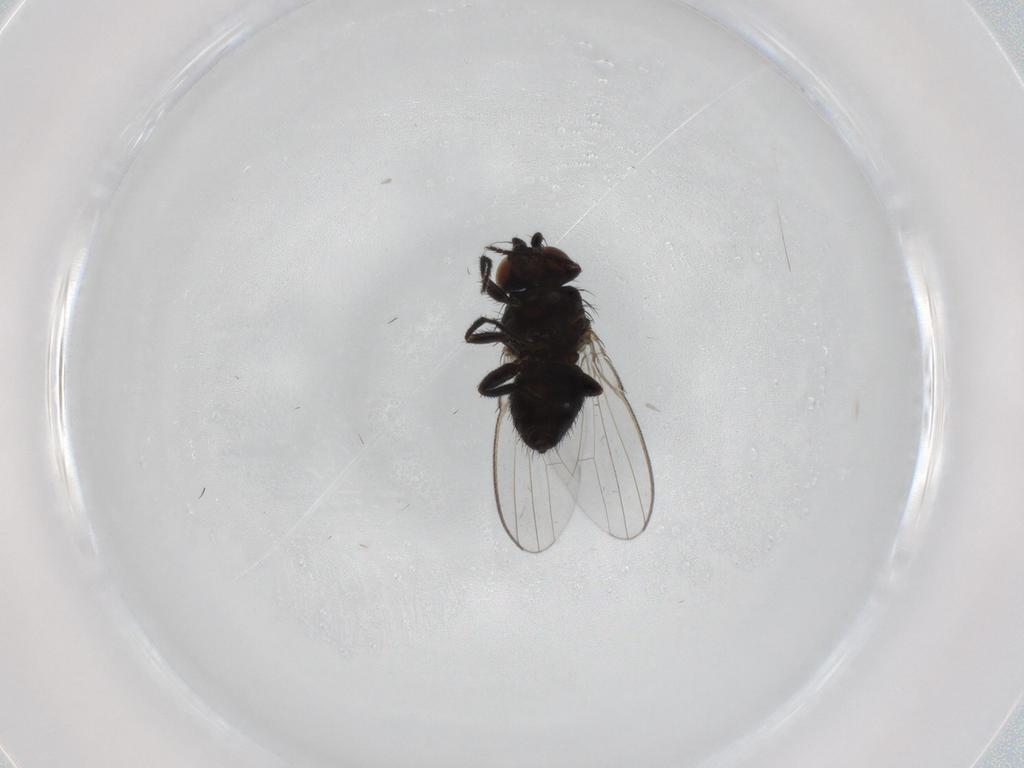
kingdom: Animalia
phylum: Arthropoda
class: Insecta
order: Diptera
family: Milichiidae
